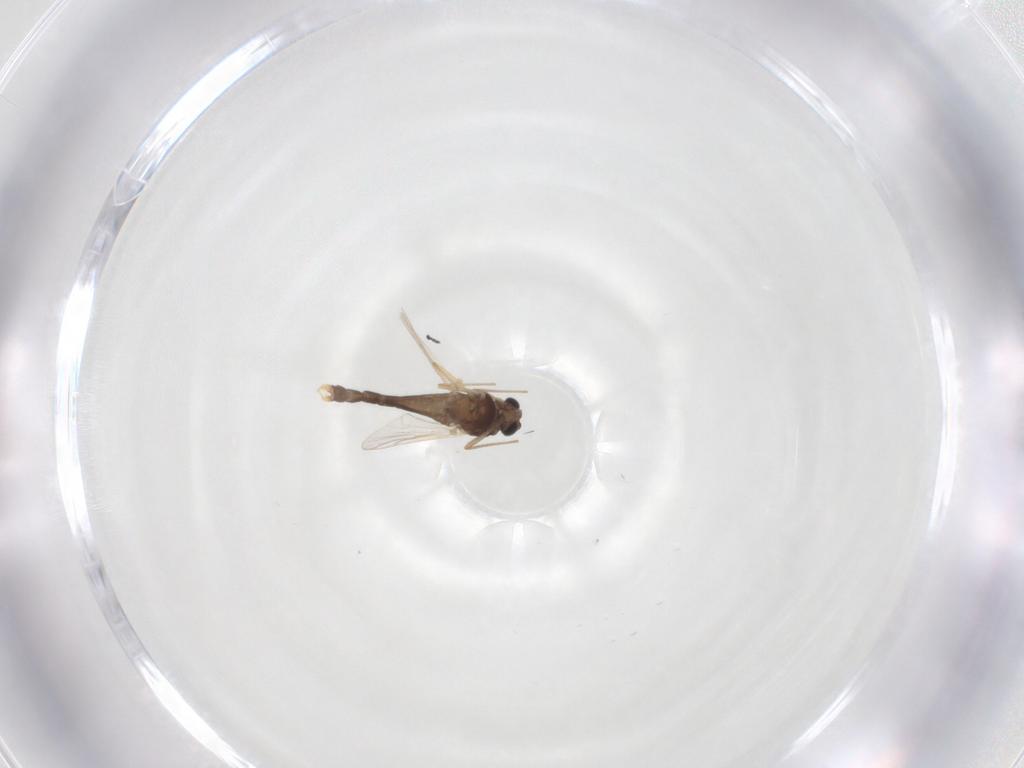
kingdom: Animalia
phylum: Arthropoda
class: Insecta
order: Diptera
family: Chironomidae
